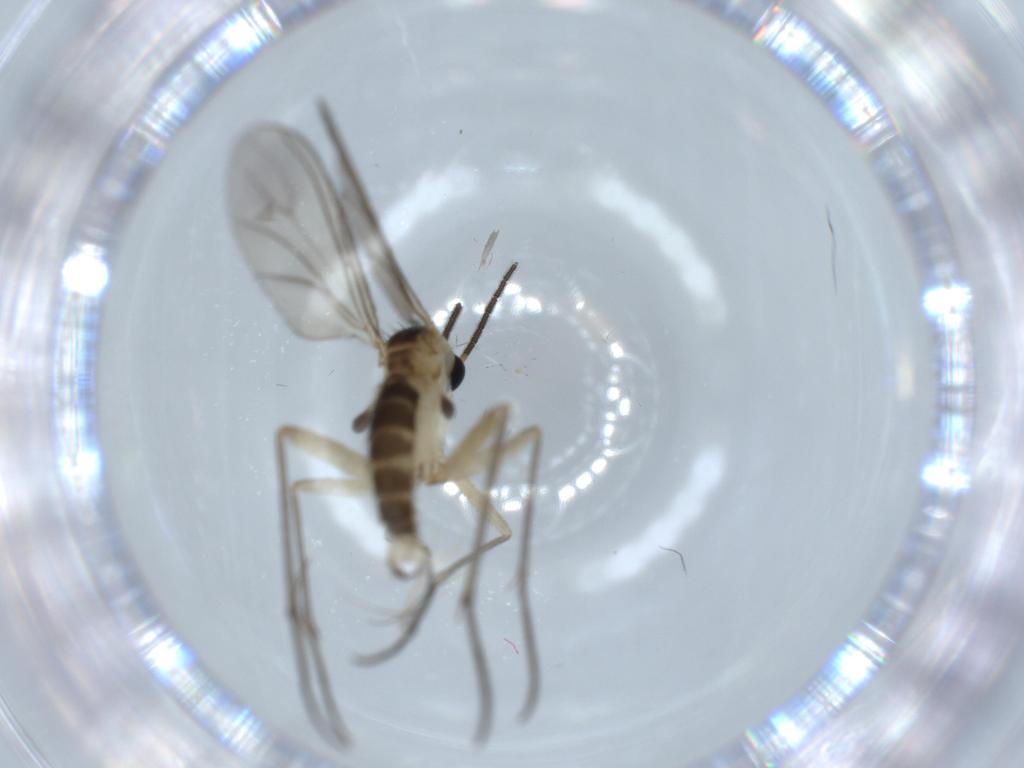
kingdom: Animalia
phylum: Arthropoda
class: Insecta
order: Diptera
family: Sciaridae
